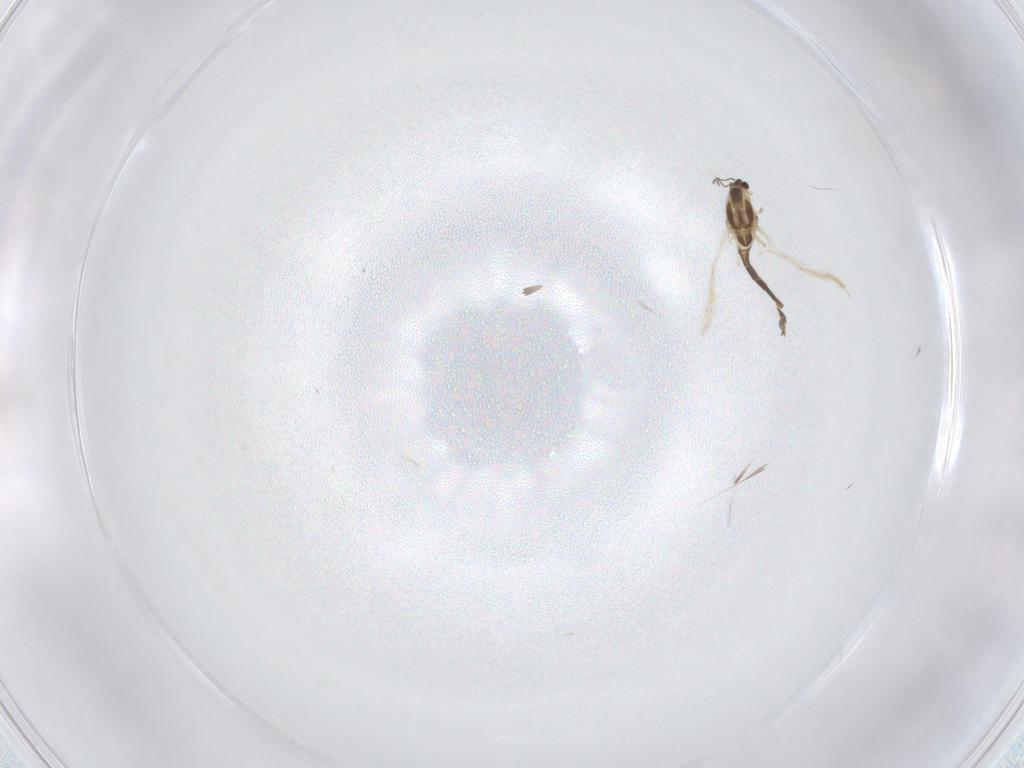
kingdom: Animalia
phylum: Arthropoda
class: Insecta
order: Diptera
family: Chironomidae
